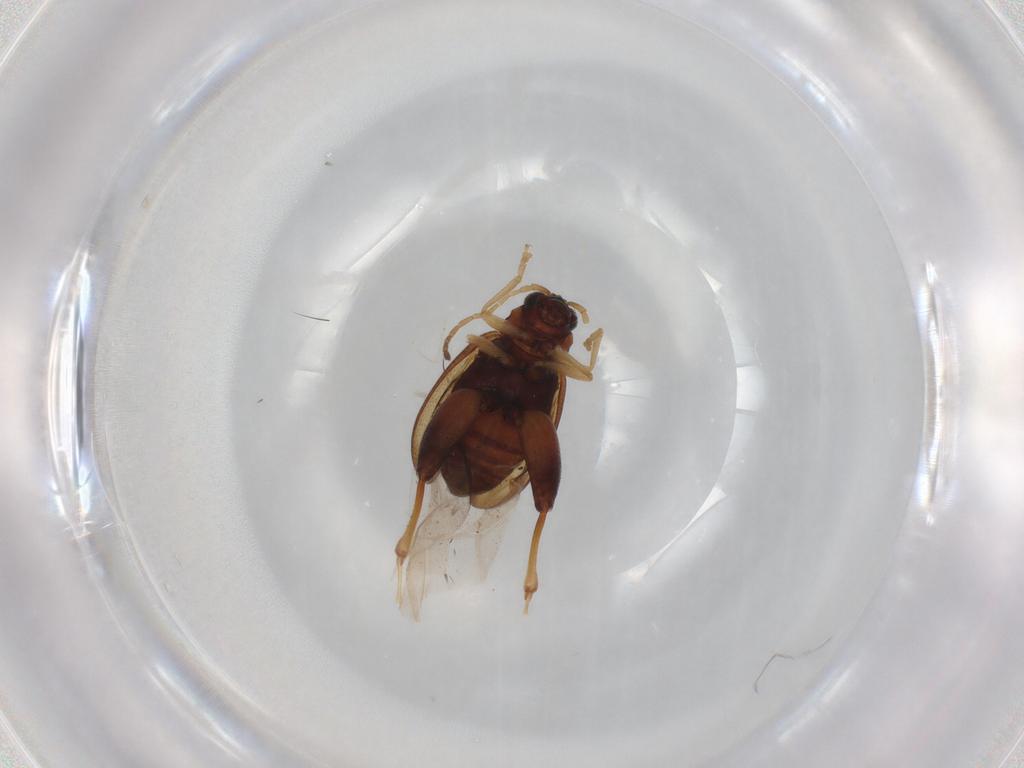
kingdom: Animalia
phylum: Arthropoda
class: Insecta
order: Coleoptera
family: Chrysomelidae
